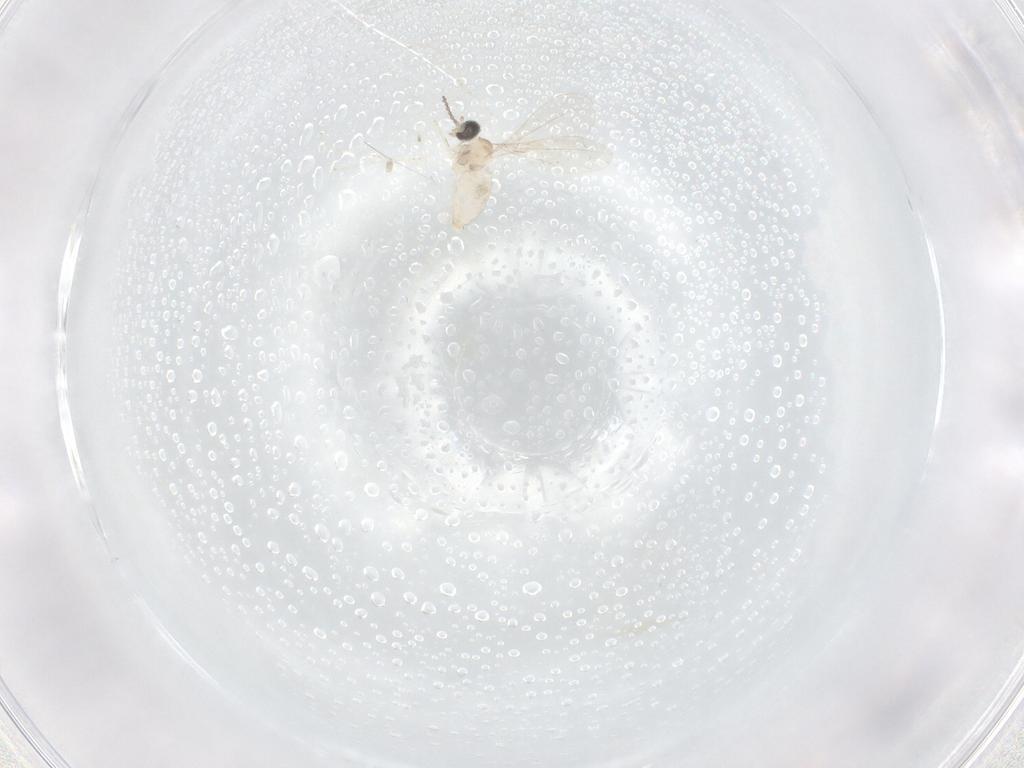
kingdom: Animalia
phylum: Arthropoda
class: Insecta
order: Diptera
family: Cecidomyiidae
